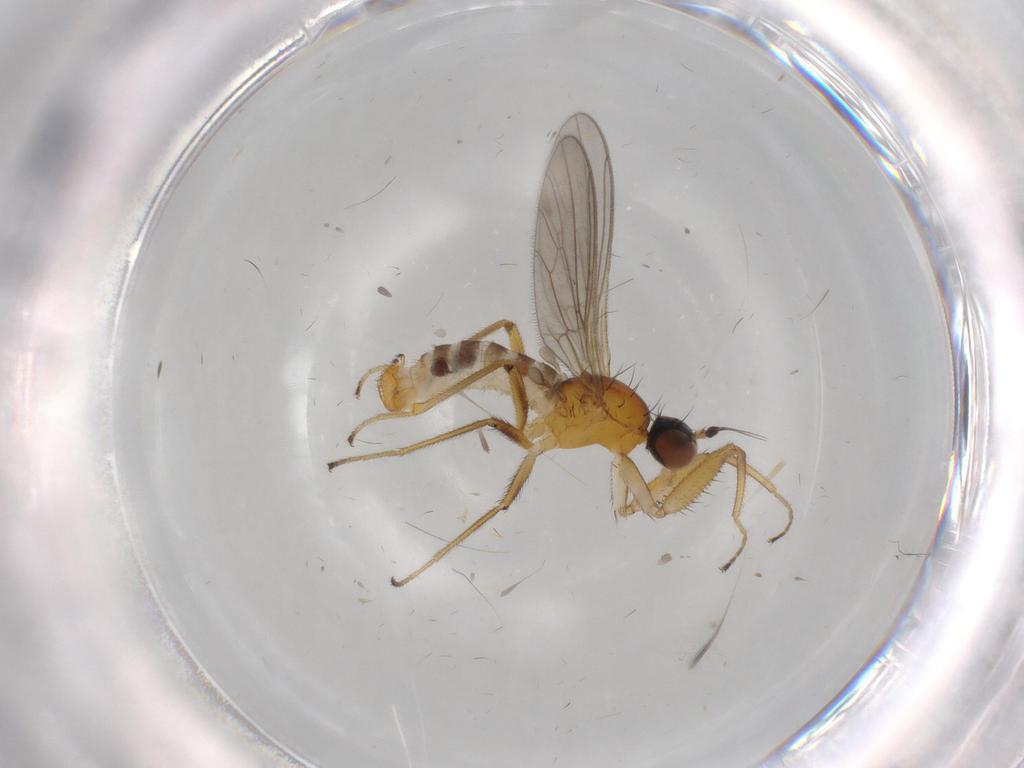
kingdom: Animalia
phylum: Arthropoda
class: Insecta
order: Diptera
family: Empididae
